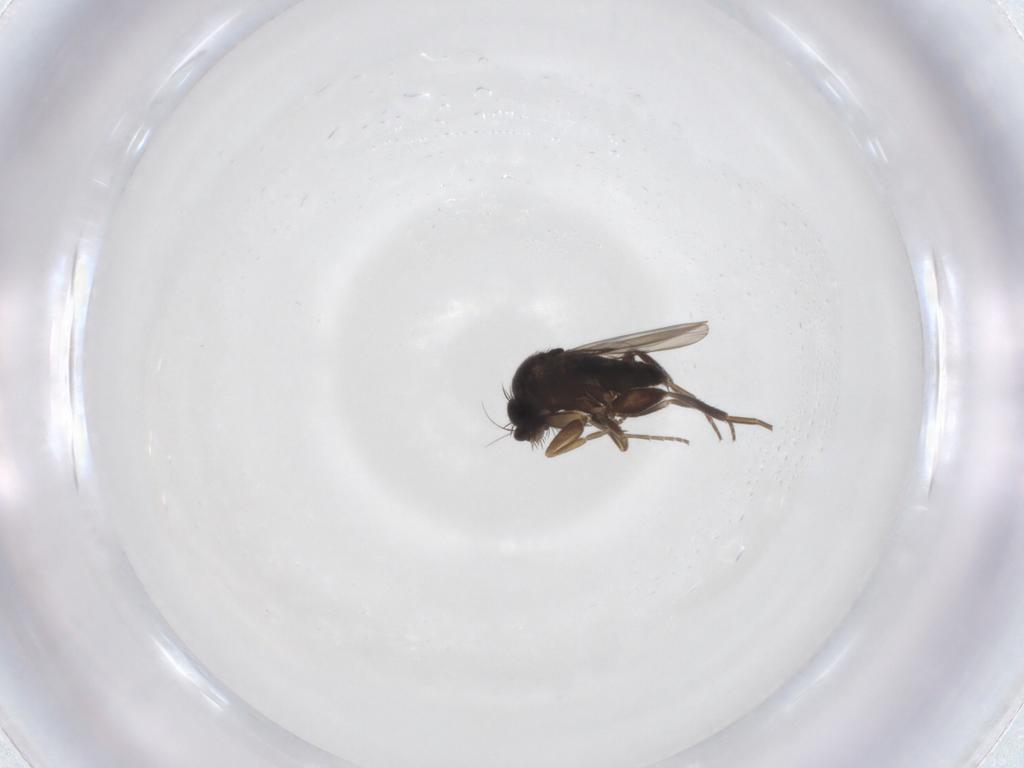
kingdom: Animalia
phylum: Arthropoda
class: Insecta
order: Diptera
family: Phoridae
